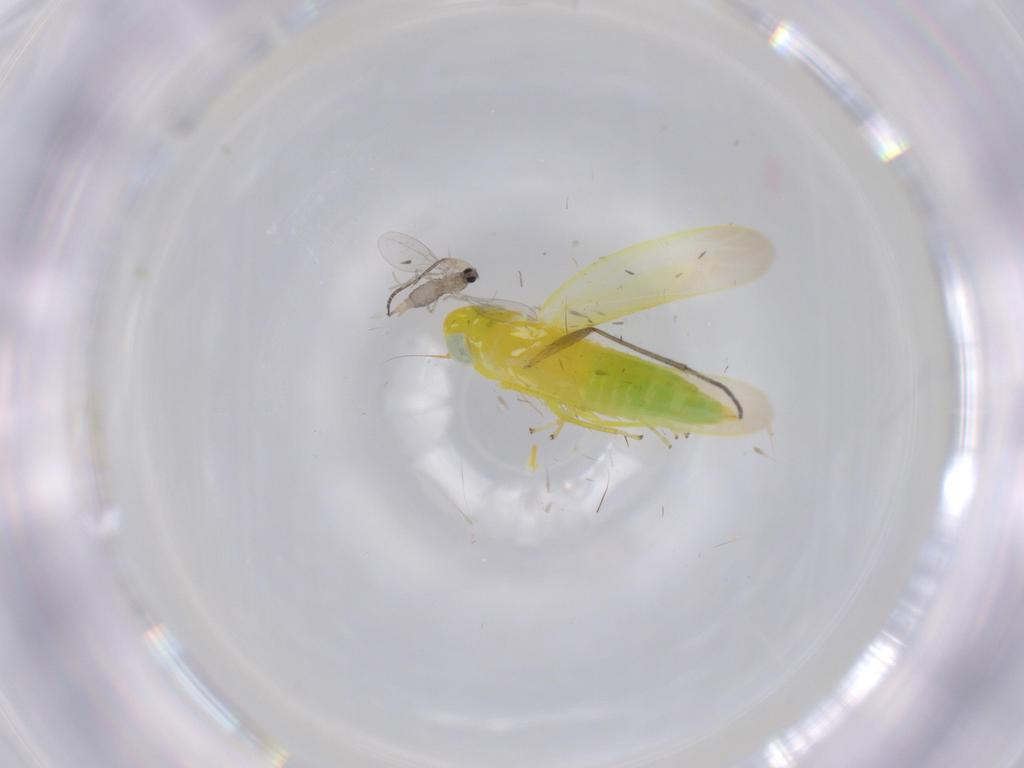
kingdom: Animalia
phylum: Arthropoda
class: Insecta
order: Hemiptera
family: Cicadellidae
